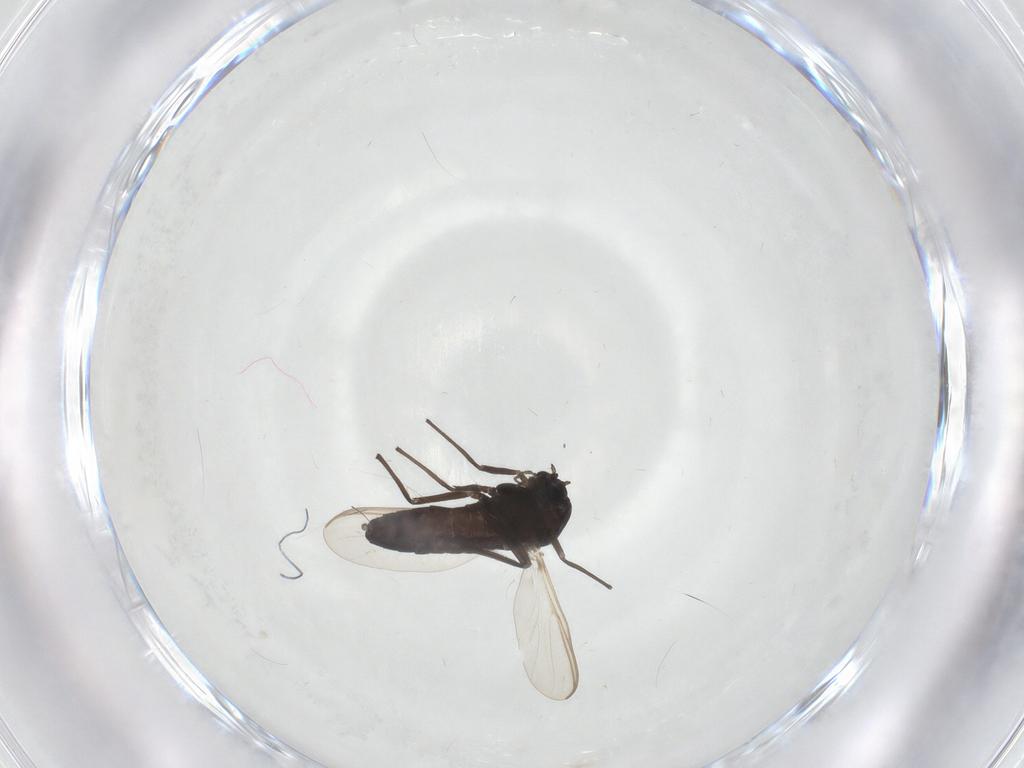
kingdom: Animalia
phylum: Arthropoda
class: Insecta
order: Diptera
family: Chironomidae
